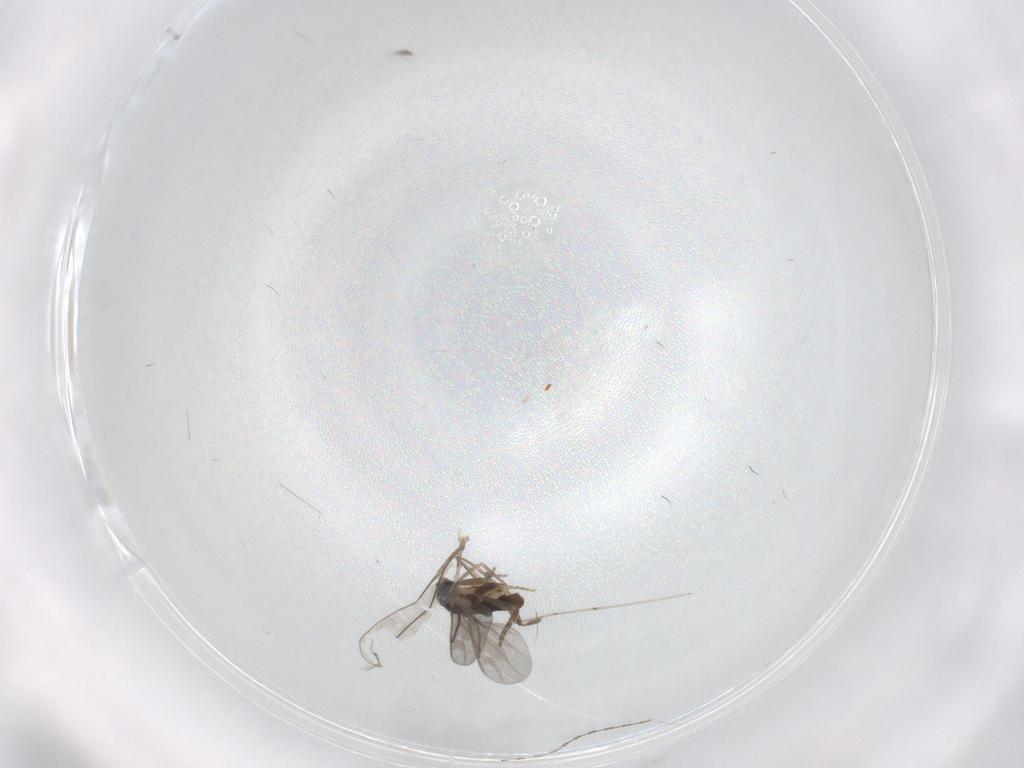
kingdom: Animalia
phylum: Arthropoda
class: Insecta
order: Diptera
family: Cecidomyiidae
